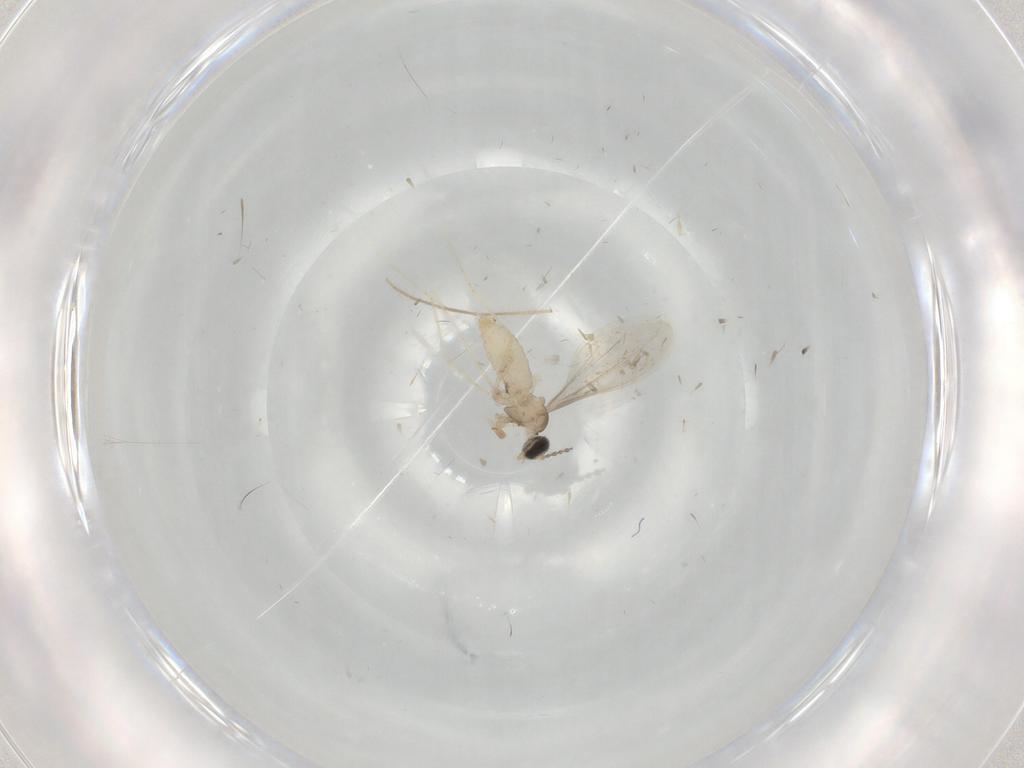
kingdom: Animalia
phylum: Arthropoda
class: Insecta
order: Diptera
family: Cecidomyiidae
